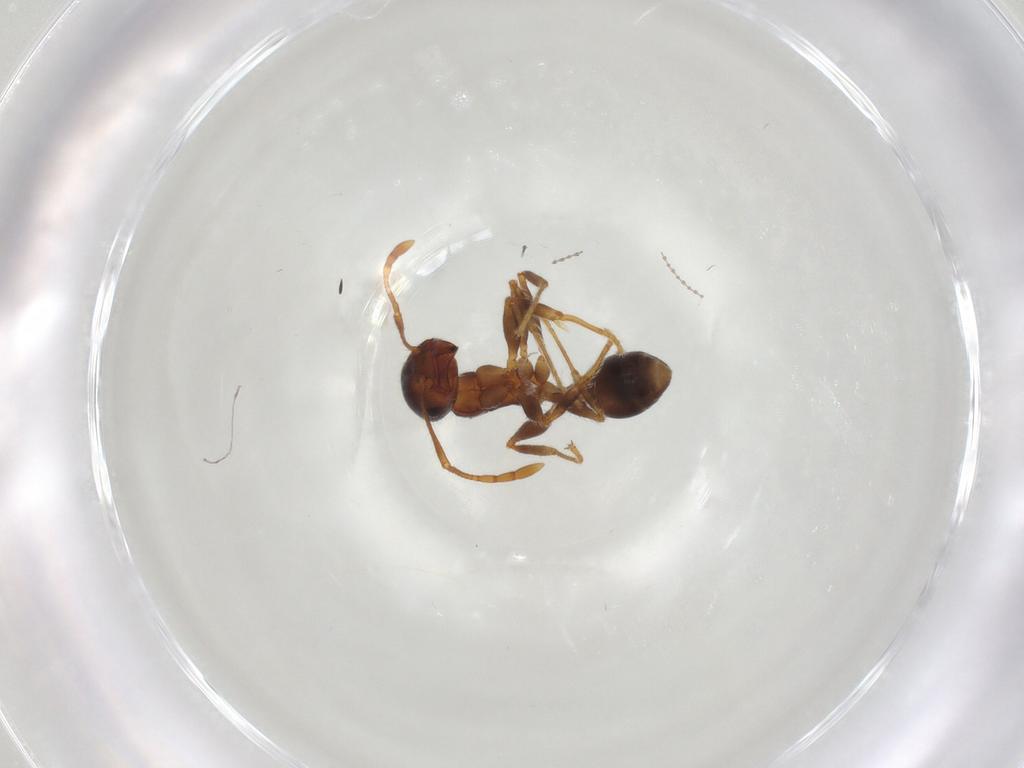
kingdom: Animalia
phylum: Arthropoda
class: Insecta
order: Hymenoptera
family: Formicidae
